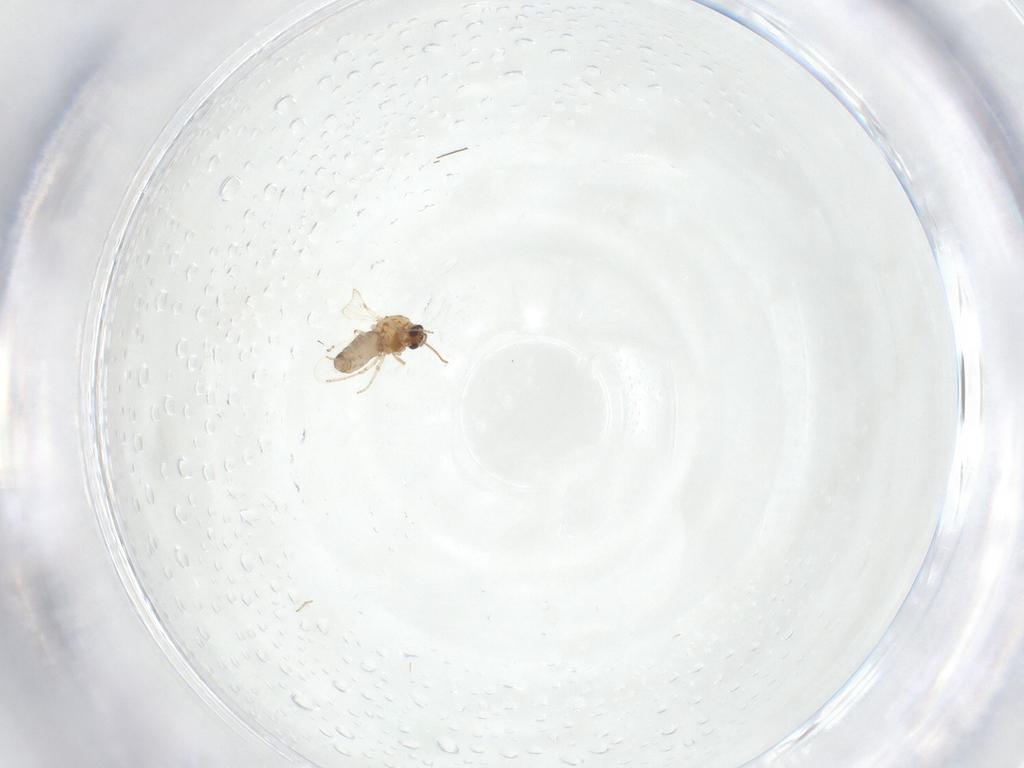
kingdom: Animalia
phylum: Arthropoda
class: Insecta
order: Diptera
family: Chironomidae
